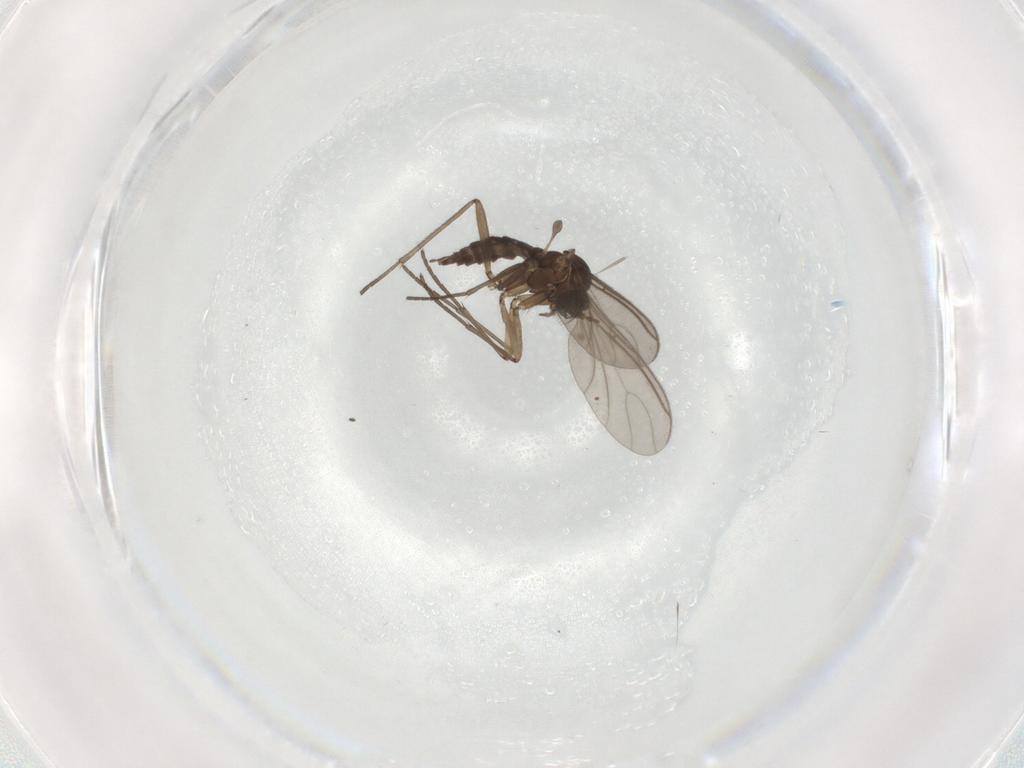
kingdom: Animalia
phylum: Arthropoda
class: Insecta
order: Diptera
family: Sciaridae
